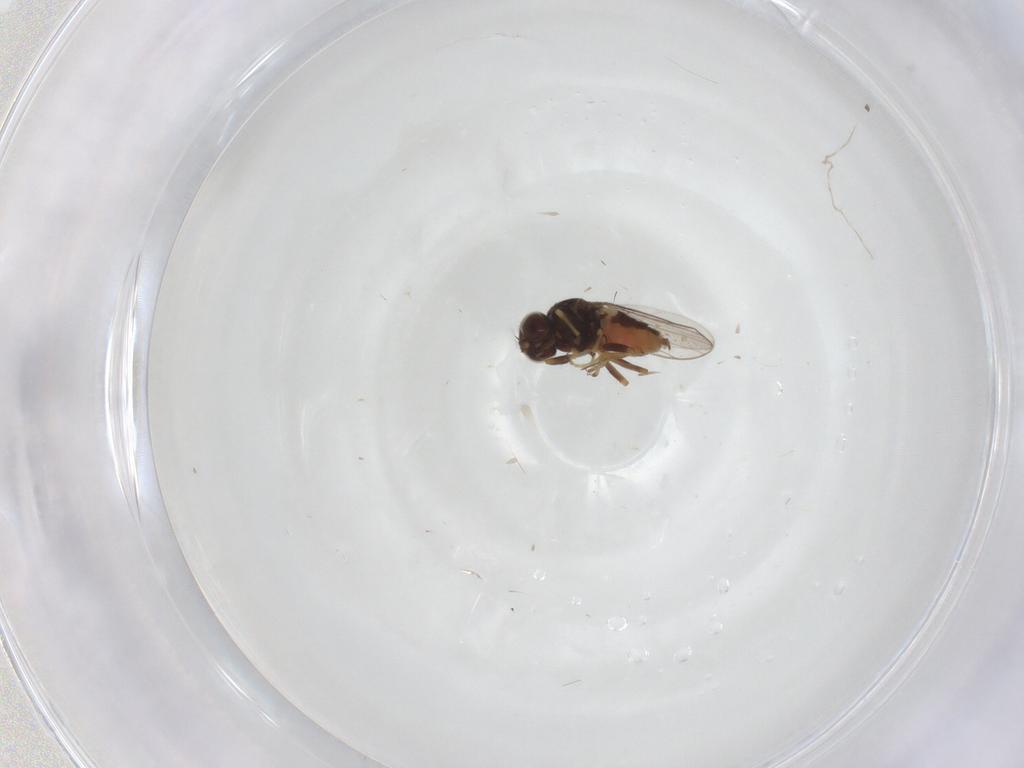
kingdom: Animalia
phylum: Arthropoda
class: Insecta
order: Diptera
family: Chloropidae
